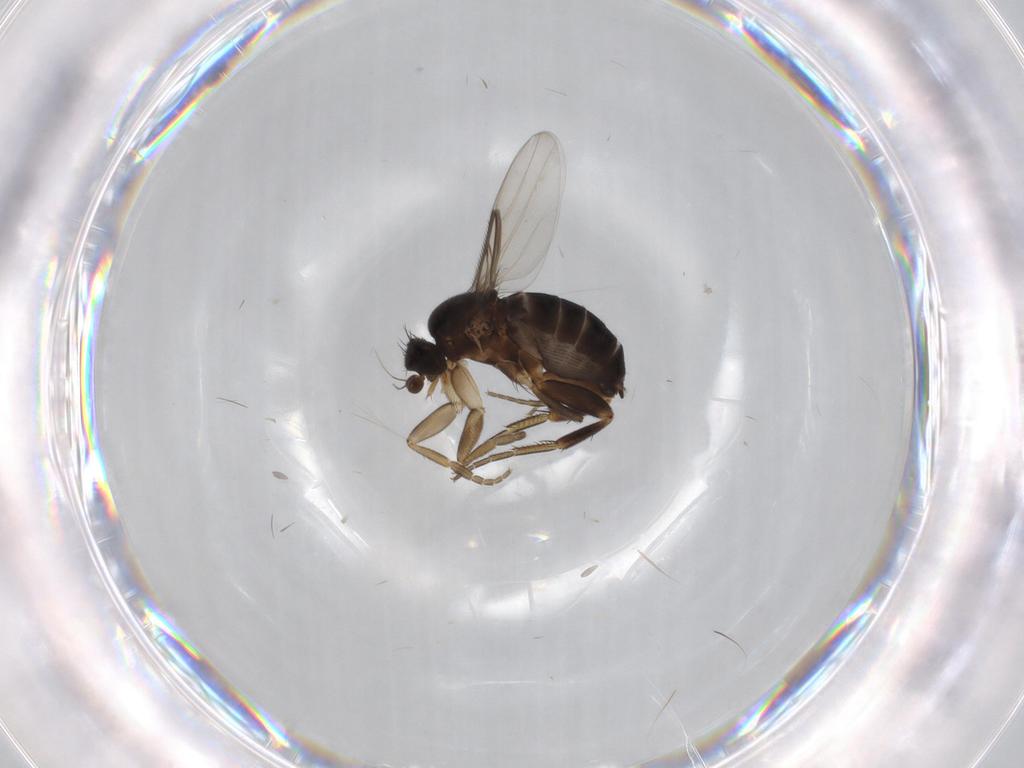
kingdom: Animalia
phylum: Arthropoda
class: Insecta
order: Diptera
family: Phoridae
